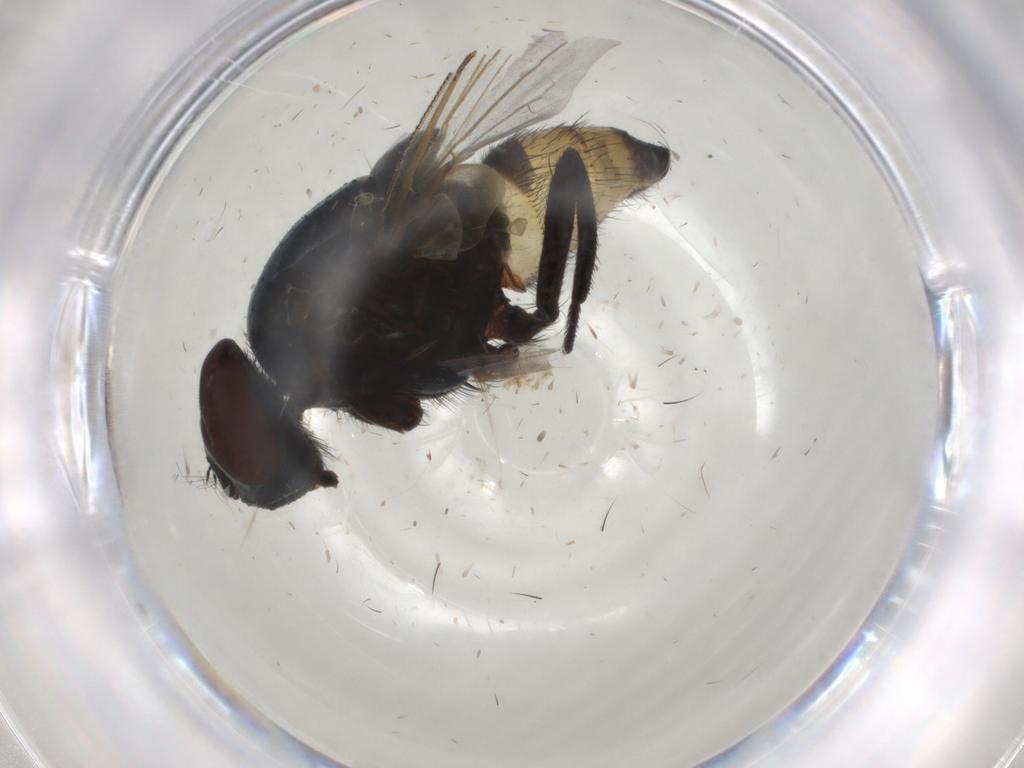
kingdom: Animalia
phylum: Arthropoda
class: Insecta
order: Diptera
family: Muscidae
